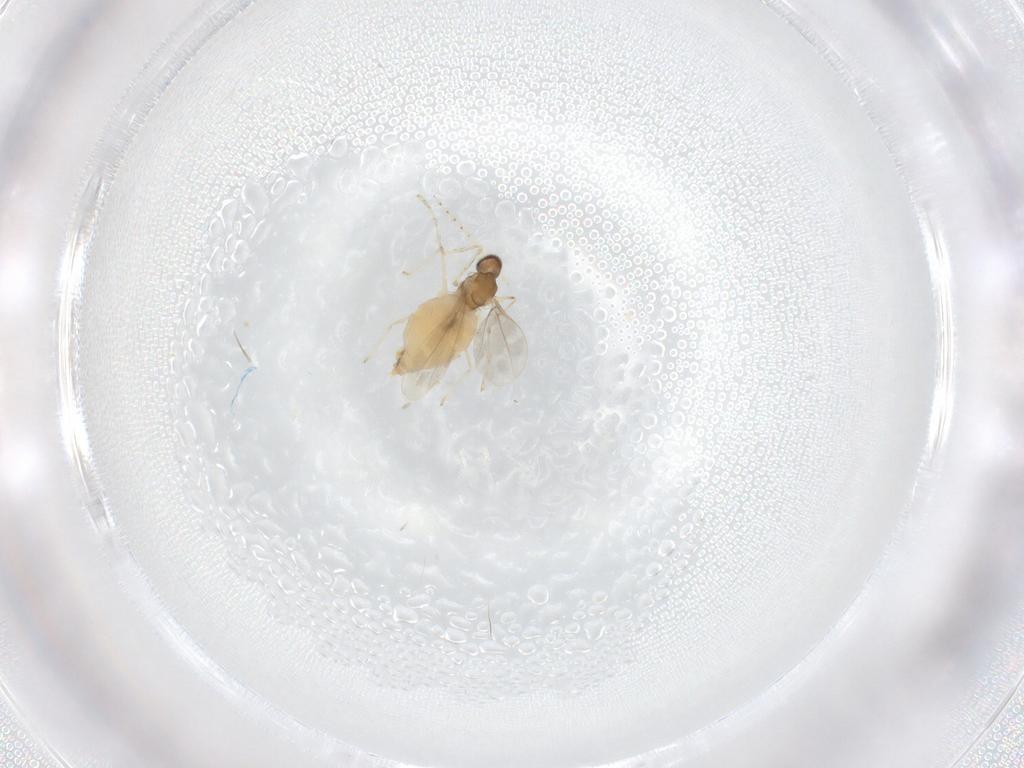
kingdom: Animalia
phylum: Arthropoda
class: Insecta
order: Diptera
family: Cecidomyiidae
